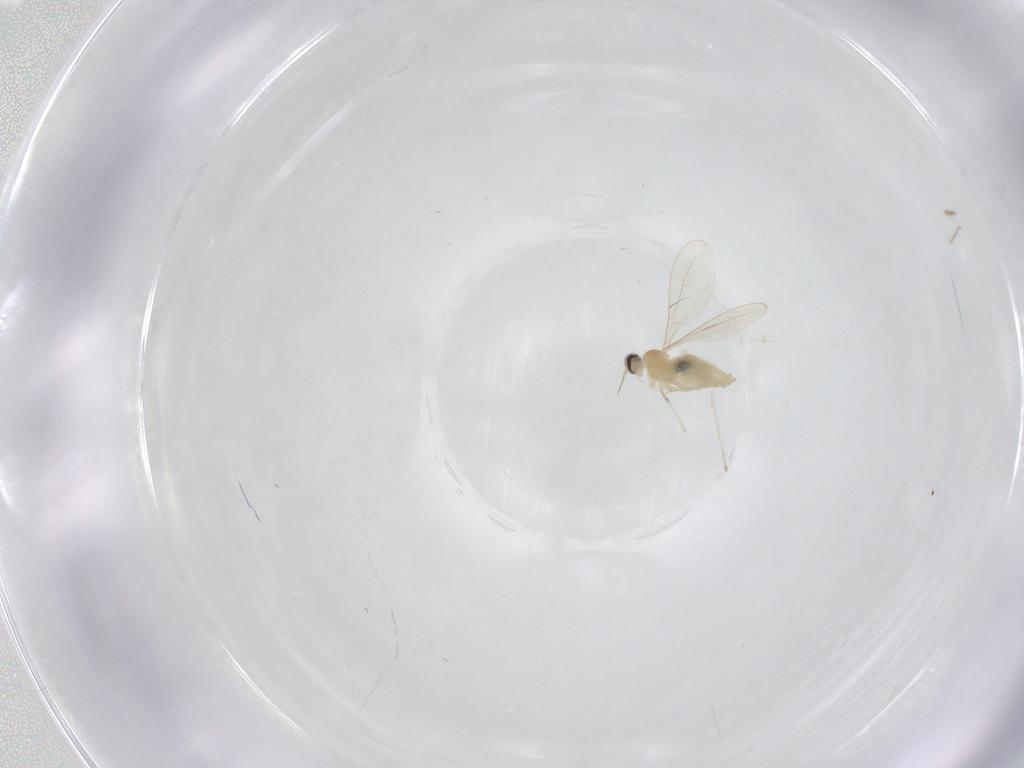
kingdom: Animalia
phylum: Arthropoda
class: Insecta
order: Diptera
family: Cecidomyiidae
